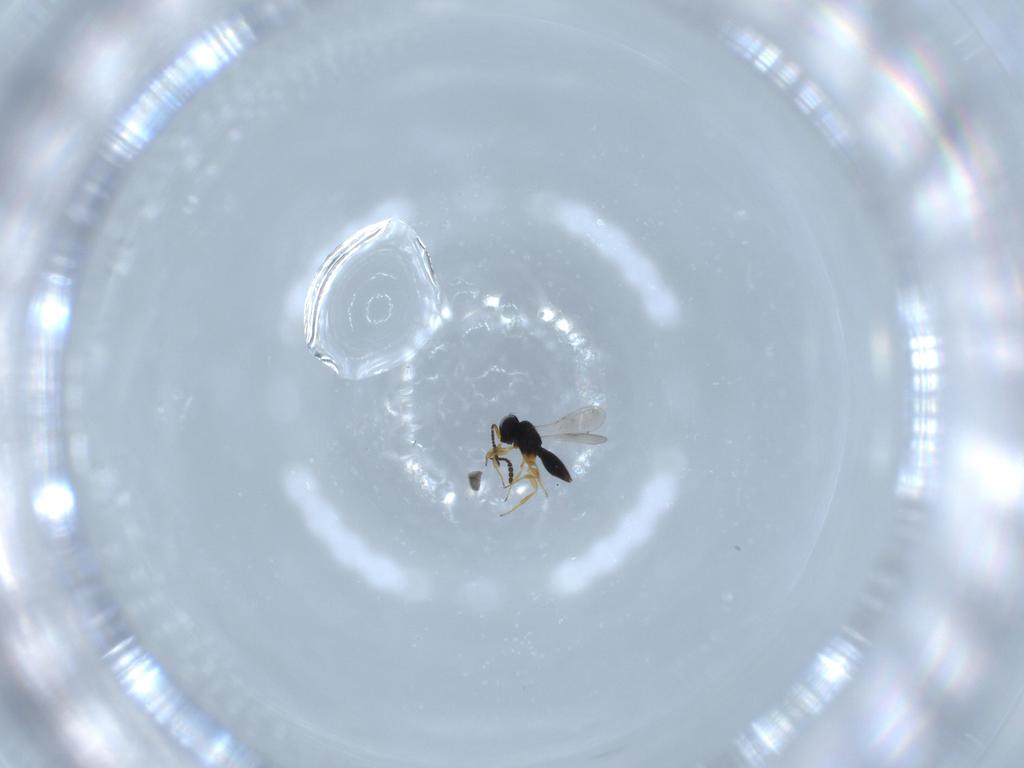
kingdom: Animalia
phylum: Arthropoda
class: Insecta
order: Hymenoptera
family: Scelionidae
